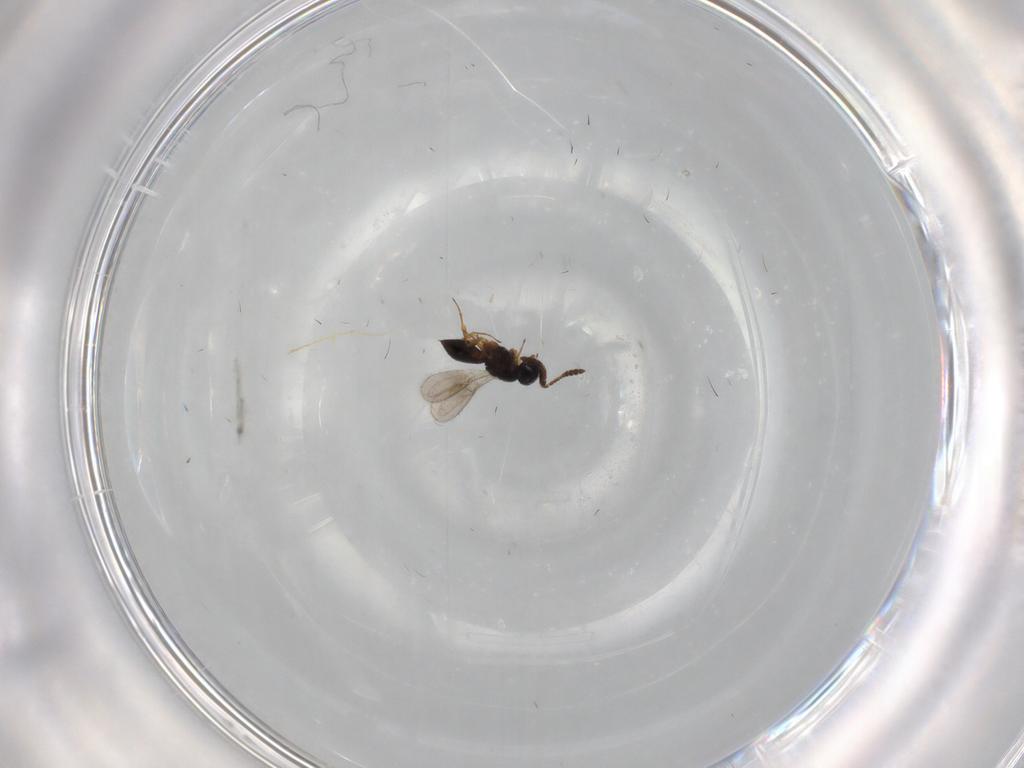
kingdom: Animalia
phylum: Arthropoda
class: Insecta
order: Hymenoptera
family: Scelionidae
